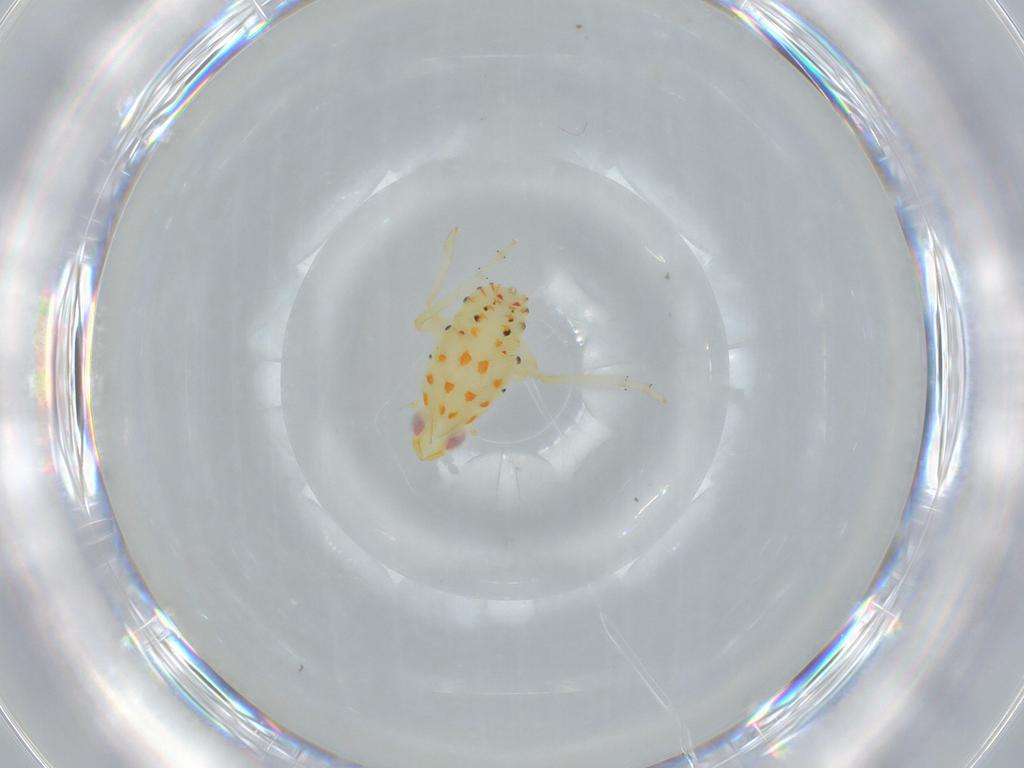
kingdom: Animalia
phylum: Arthropoda
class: Insecta
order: Hemiptera
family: Tropiduchidae
